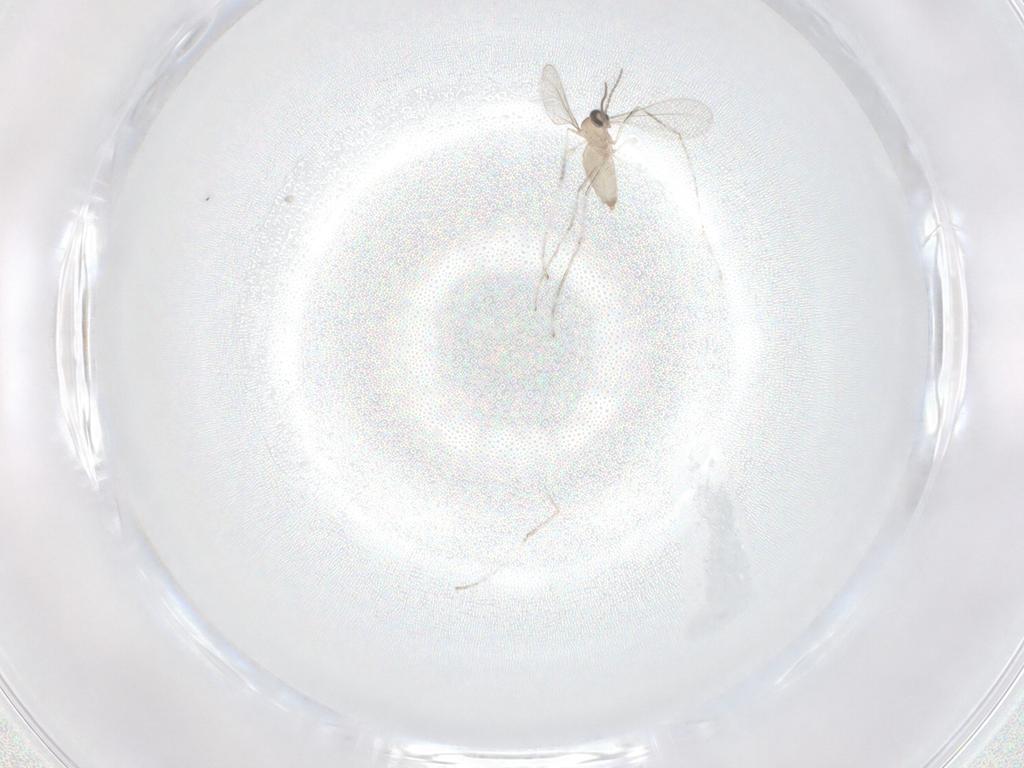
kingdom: Animalia
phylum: Arthropoda
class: Insecta
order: Diptera
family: Cecidomyiidae
